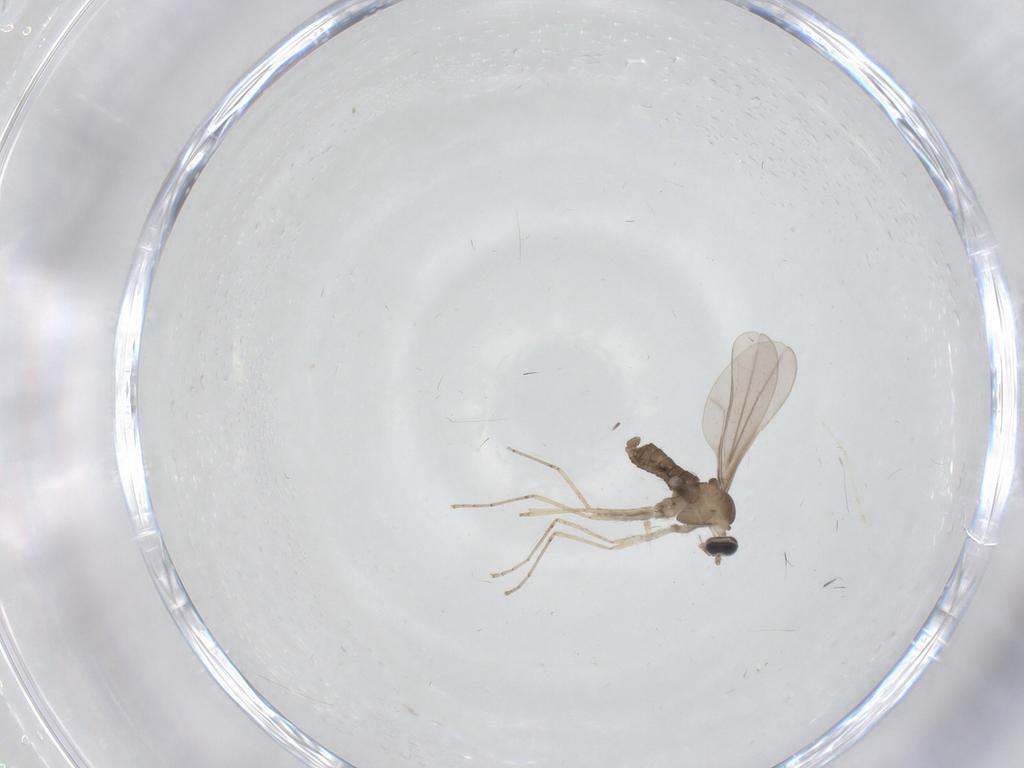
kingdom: Animalia
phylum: Arthropoda
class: Insecta
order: Diptera
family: Cecidomyiidae
